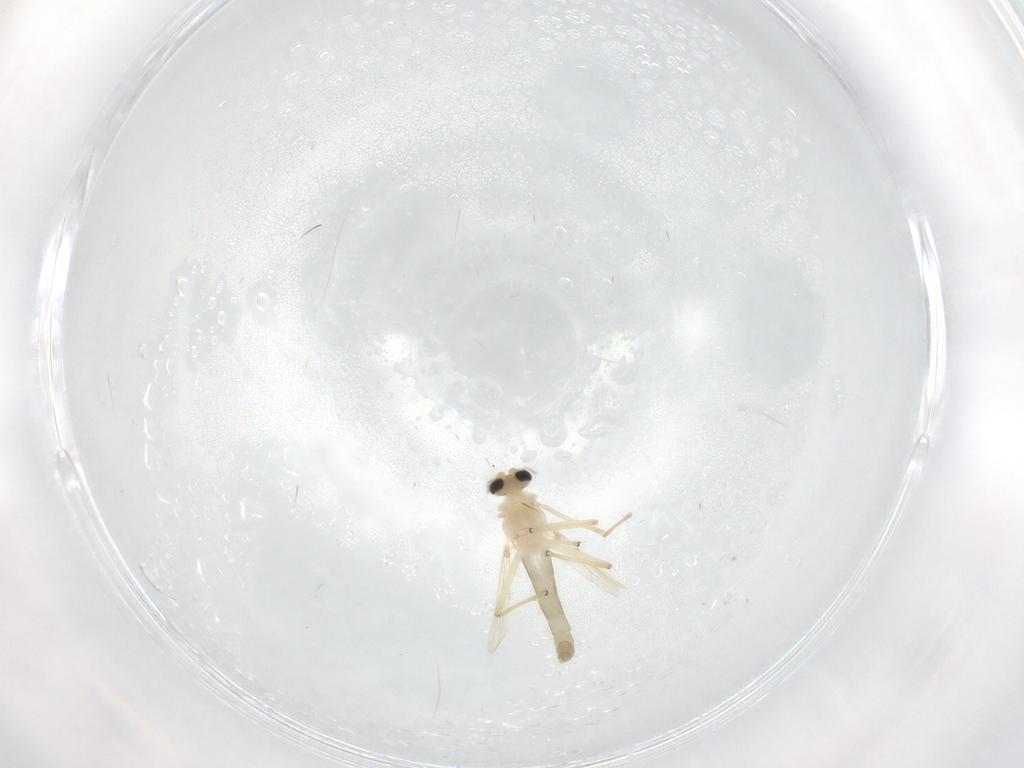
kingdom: Animalia
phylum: Arthropoda
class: Insecta
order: Diptera
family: Chironomidae
